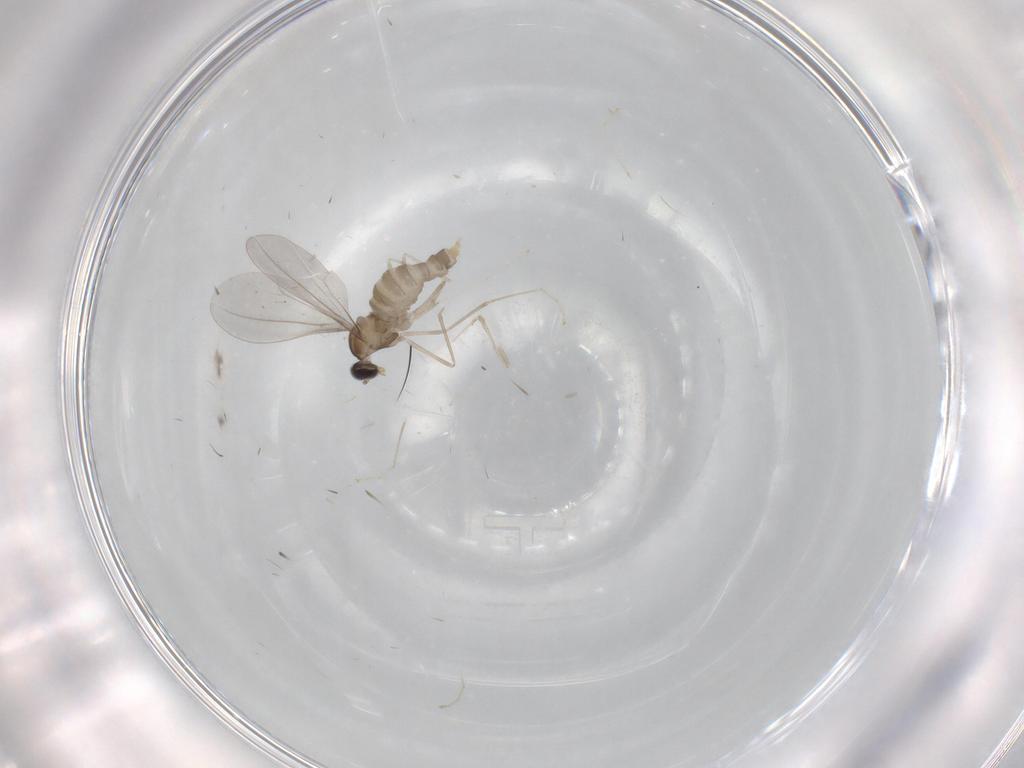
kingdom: Animalia
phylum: Arthropoda
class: Insecta
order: Diptera
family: Cecidomyiidae
